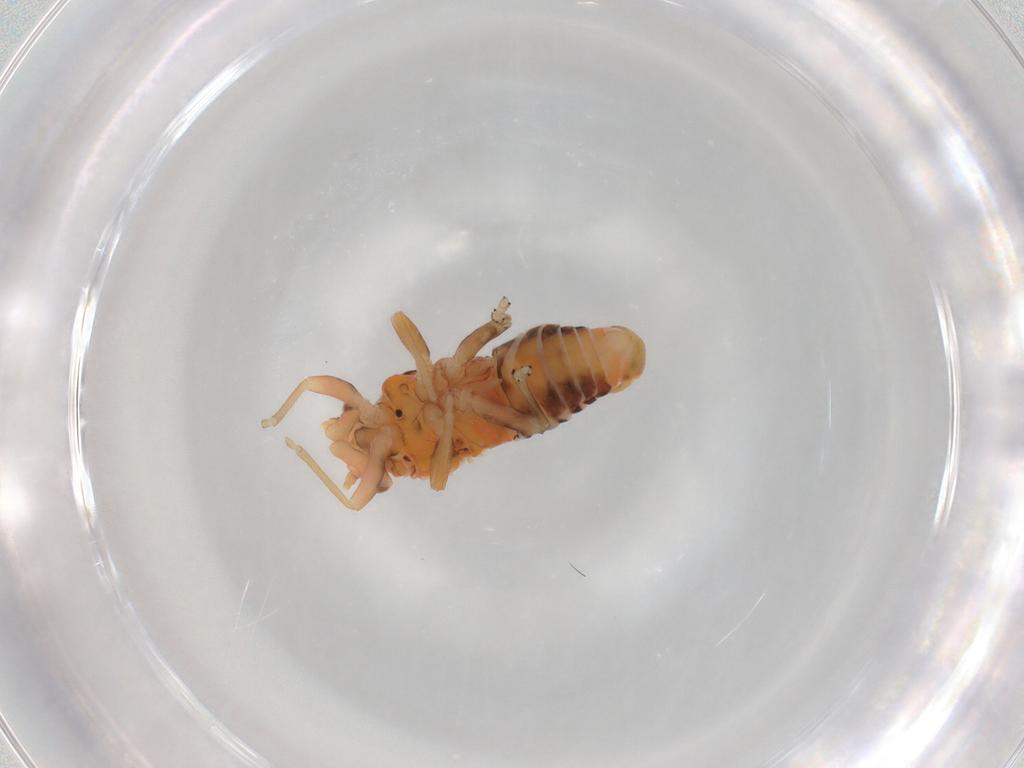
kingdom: Animalia
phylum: Arthropoda
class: Insecta
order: Hemiptera
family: Psyllidae
